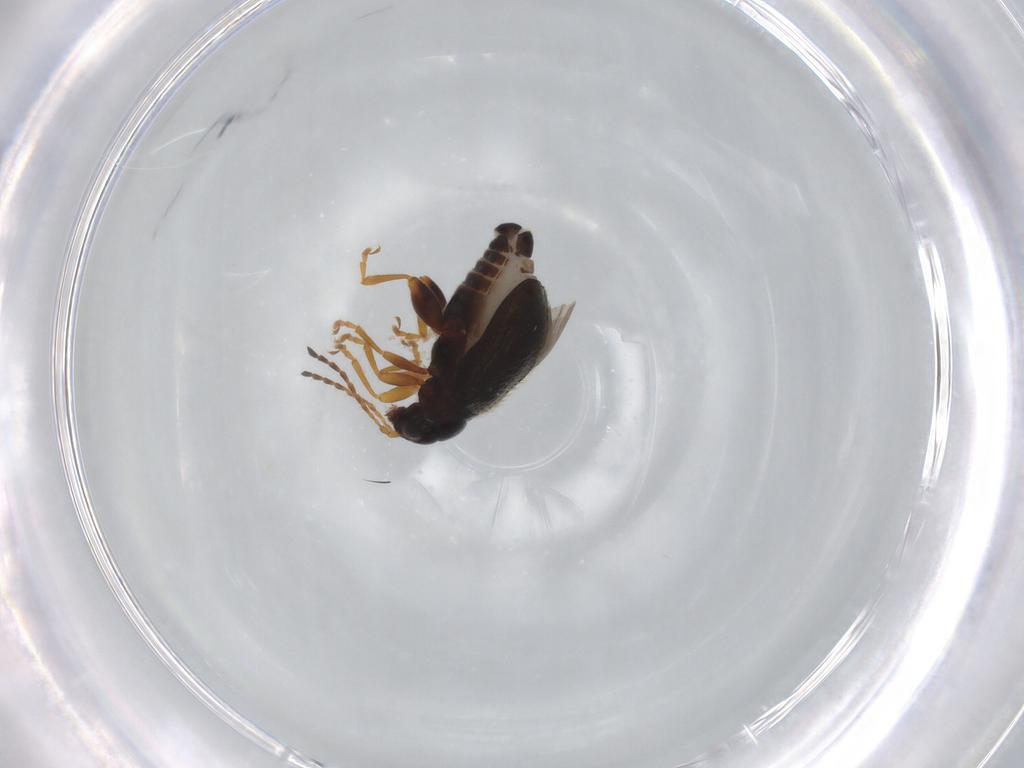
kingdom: Animalia
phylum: Arthropoda
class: Insecta
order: Coleoptera
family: Chrysomelidae
